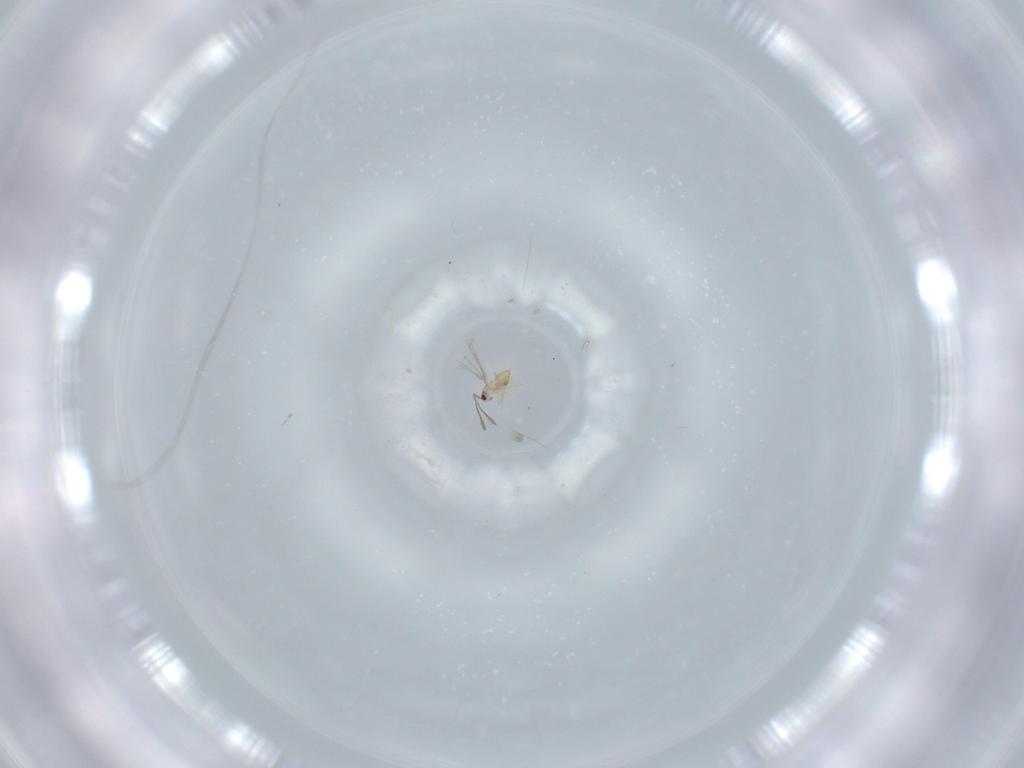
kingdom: Animalia
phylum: Arthropoda
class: Insecta
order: Hymenoptera
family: Mymaridae
